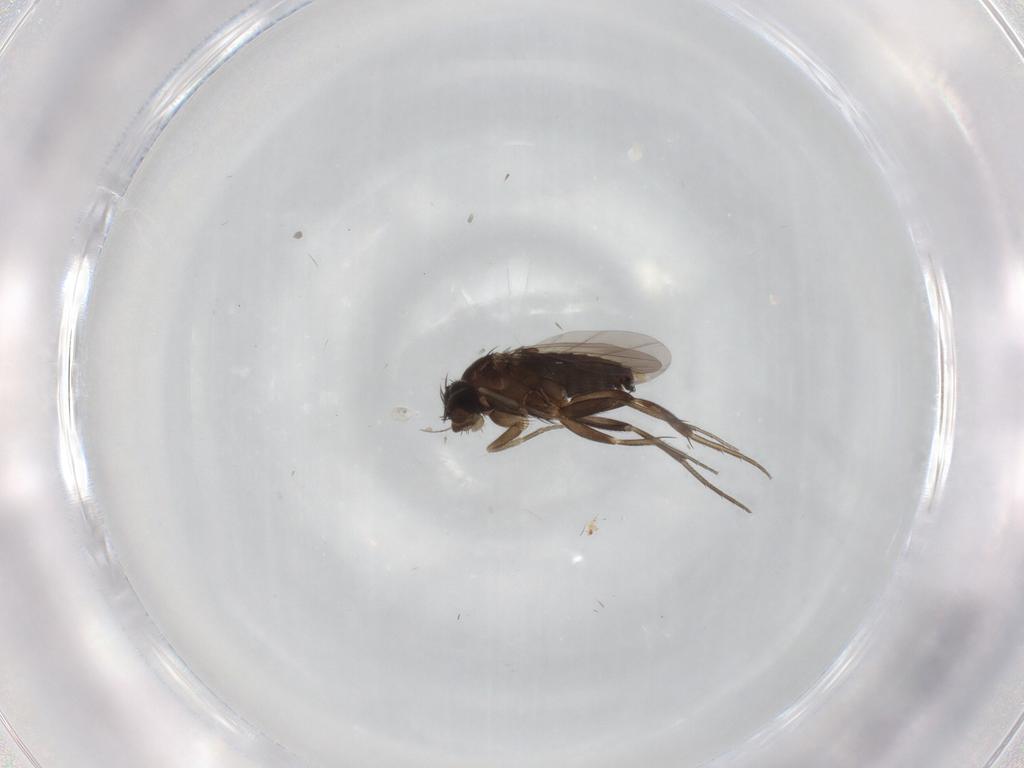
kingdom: Animalia
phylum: Arthropoda
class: Insecta
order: Diptera
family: Phoridae
